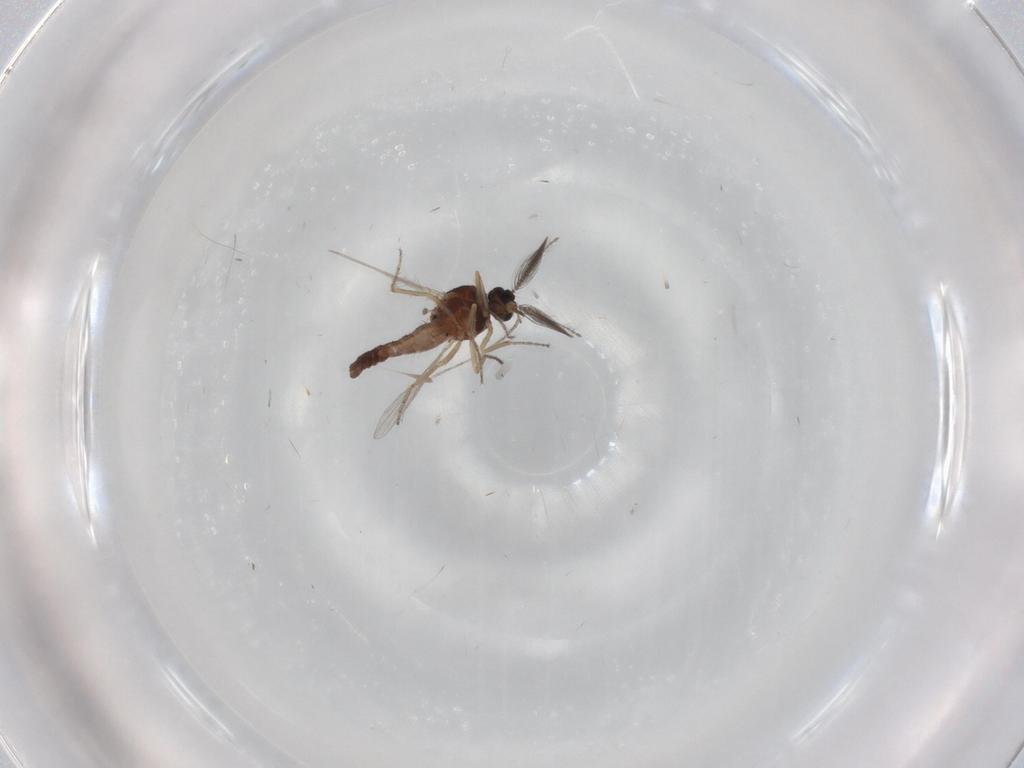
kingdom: Animalia
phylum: Arthropoda
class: Insecta
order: Diptera
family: Ceratopogonidae
